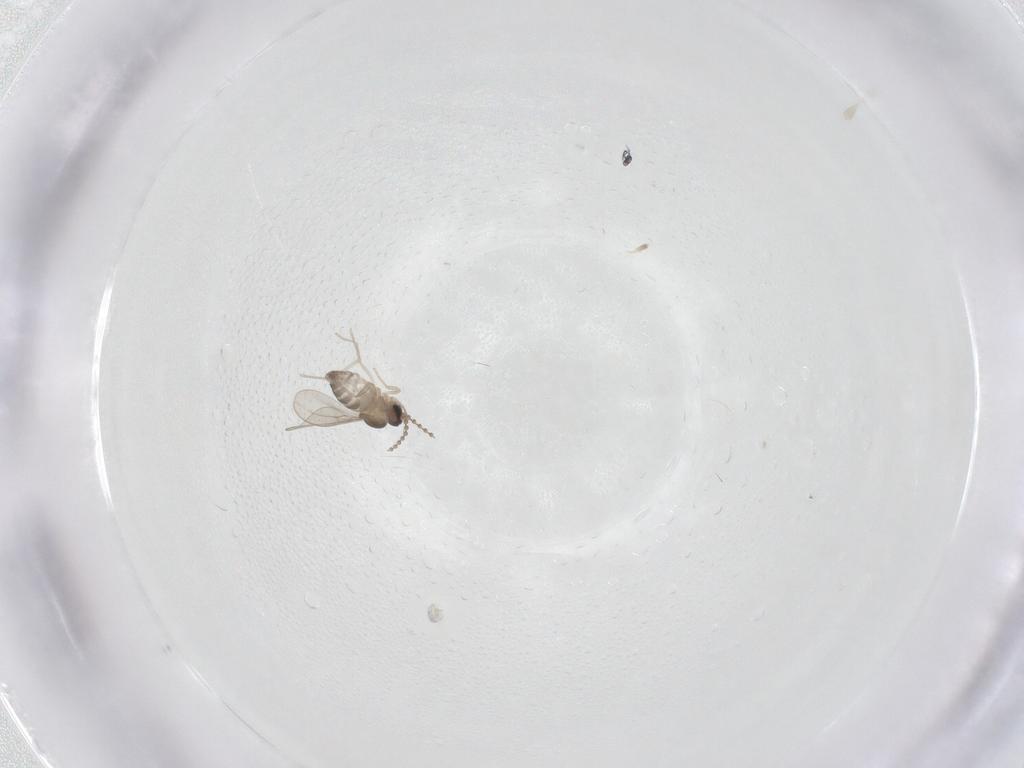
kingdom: Animalia
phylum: Arthropoda
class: Insecta
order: Diptera
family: Cecidomyiidae
